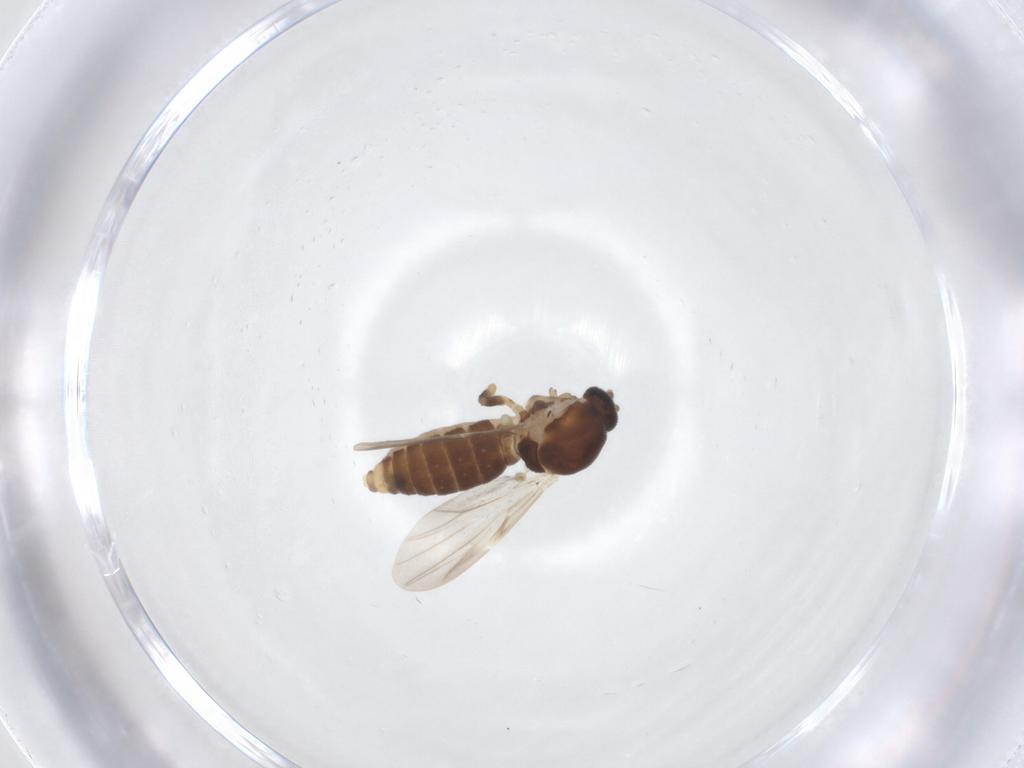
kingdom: Animalia
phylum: Arthropoda
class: Insecta
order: Diptera
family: Ceratopogonidae
